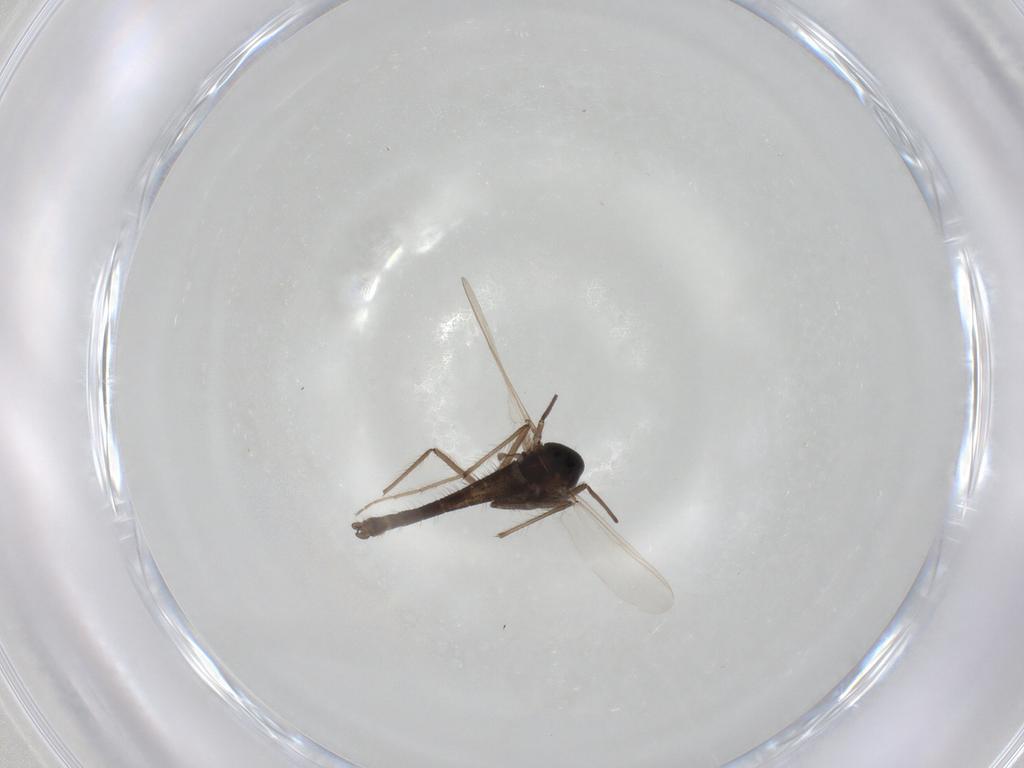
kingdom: Animalia
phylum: Arthropoda
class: Insecta
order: Diptera
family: Chironomidae
